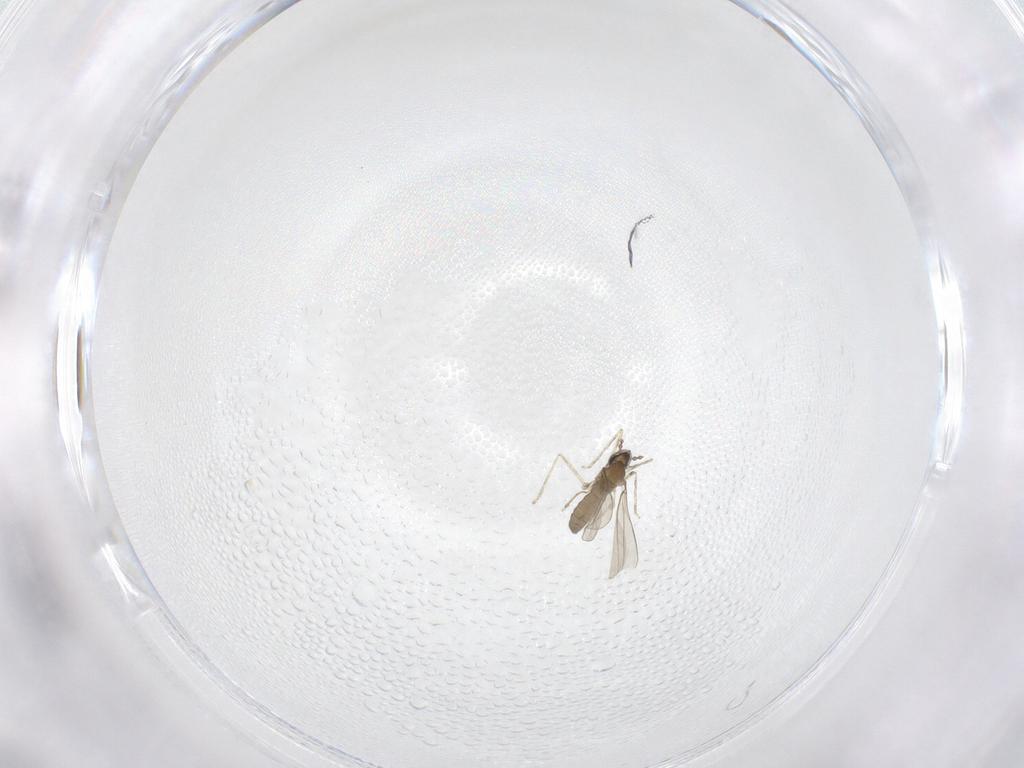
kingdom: Animalia
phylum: Arthropoda
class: Insecta
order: Diptera
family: Cecidomyiidae
